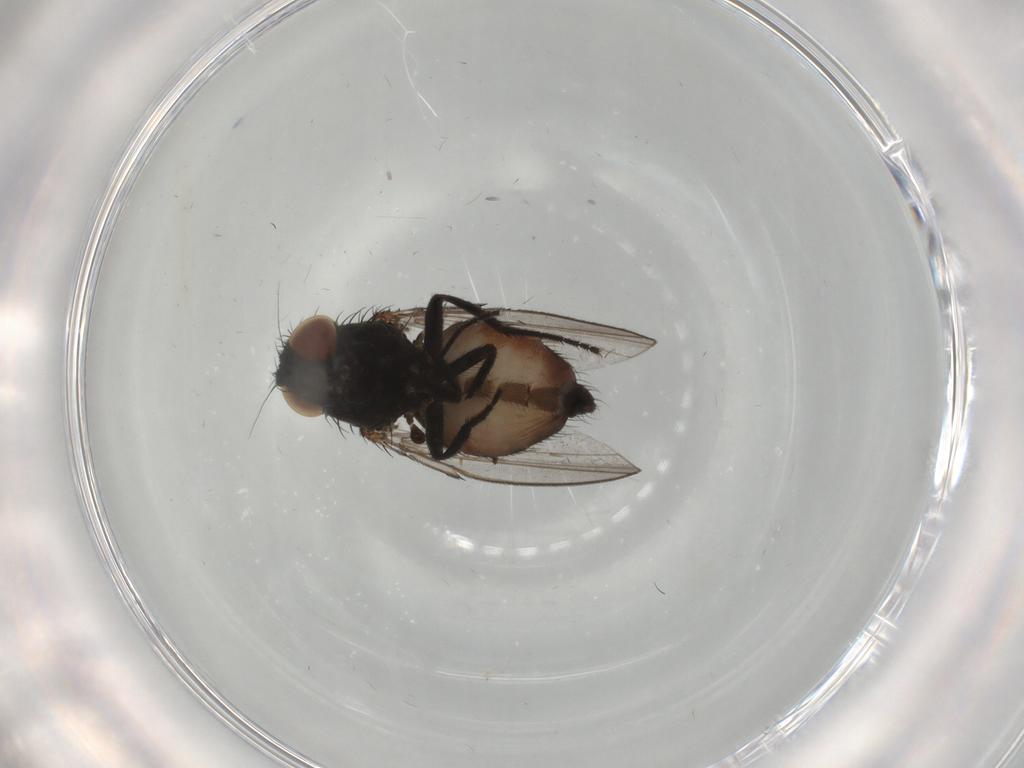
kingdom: Animalia
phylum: Arthropoda
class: Insecta
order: Diptera
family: Milichiidae
